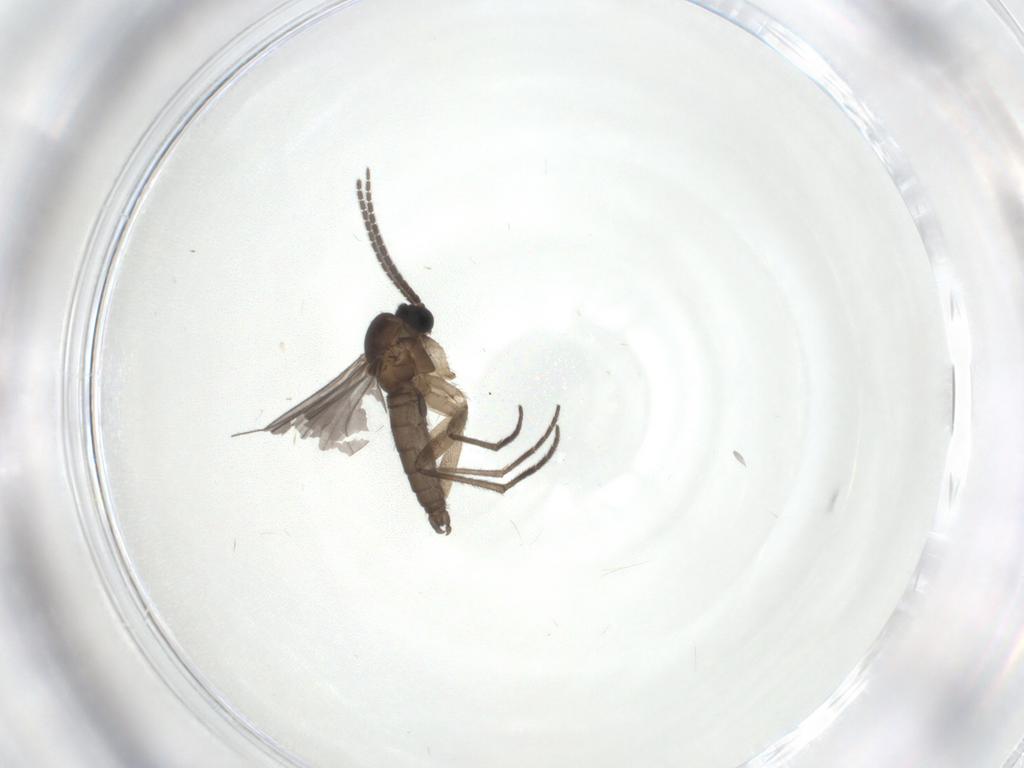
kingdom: Animalia
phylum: Arthropoda
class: Insecta
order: Diptera
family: Sciaridae
